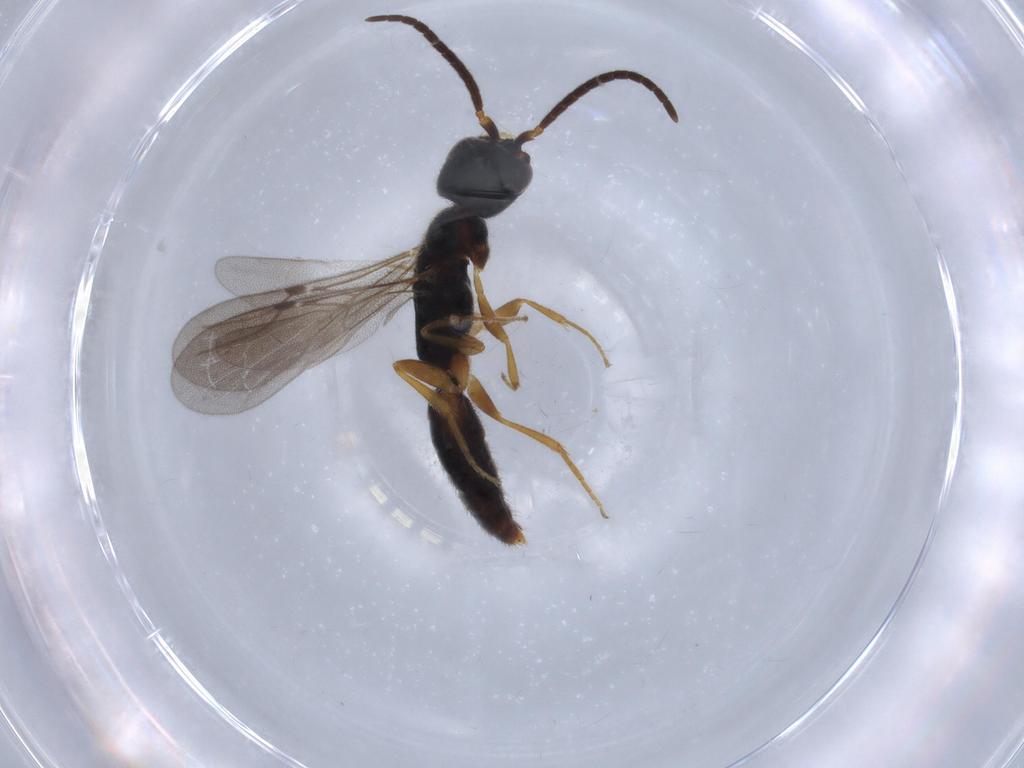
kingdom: Animalia
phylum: Arthropoda
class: Insecta
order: Hymenoptera
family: Bethylidae
